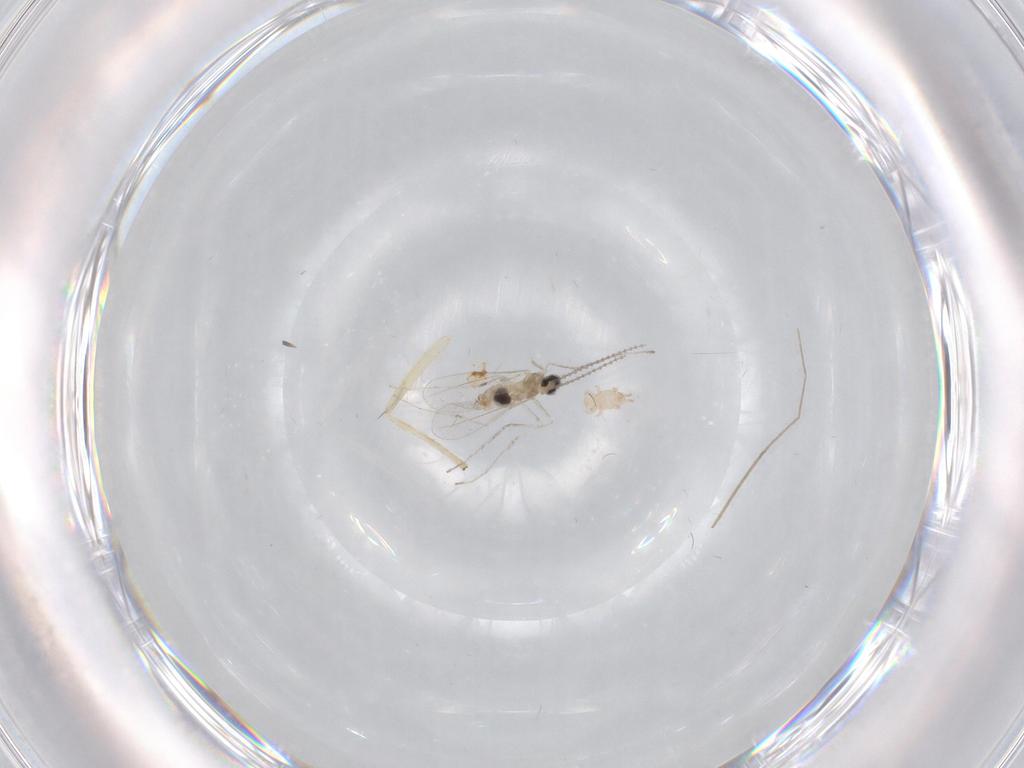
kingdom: Animalia
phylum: Arthropoda
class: Insecta
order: Diptera
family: Cecidomyiidae
